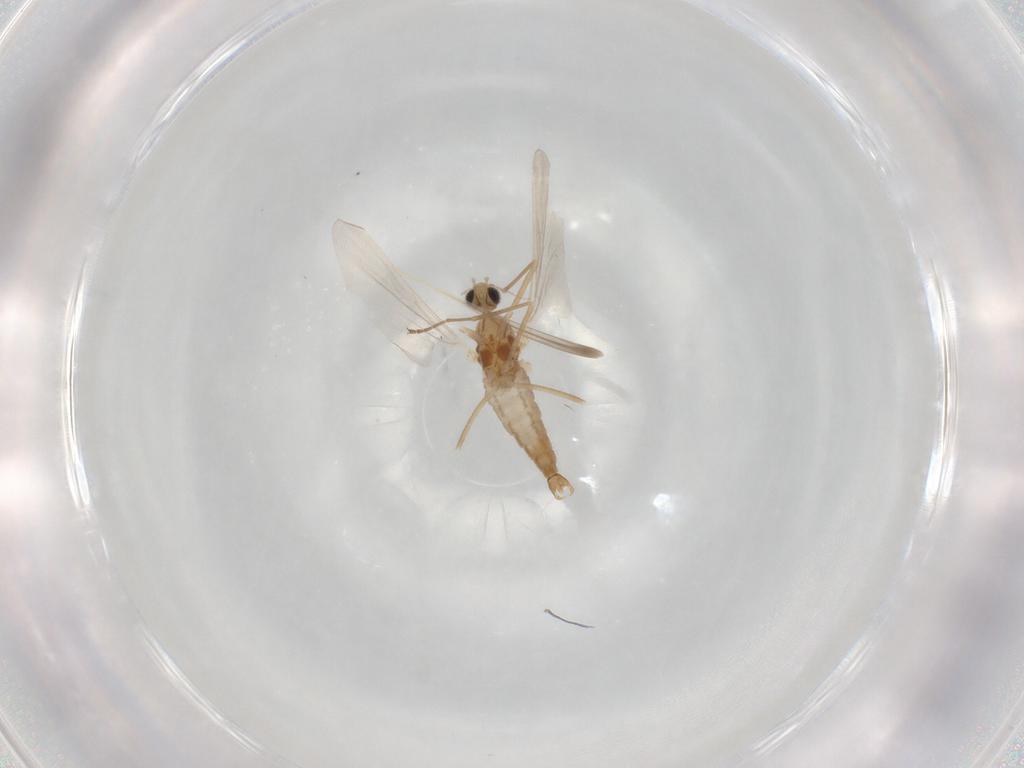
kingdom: Animalia
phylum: Arthropoda
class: Insecta
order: Diptera
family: Cecidomyiidae
